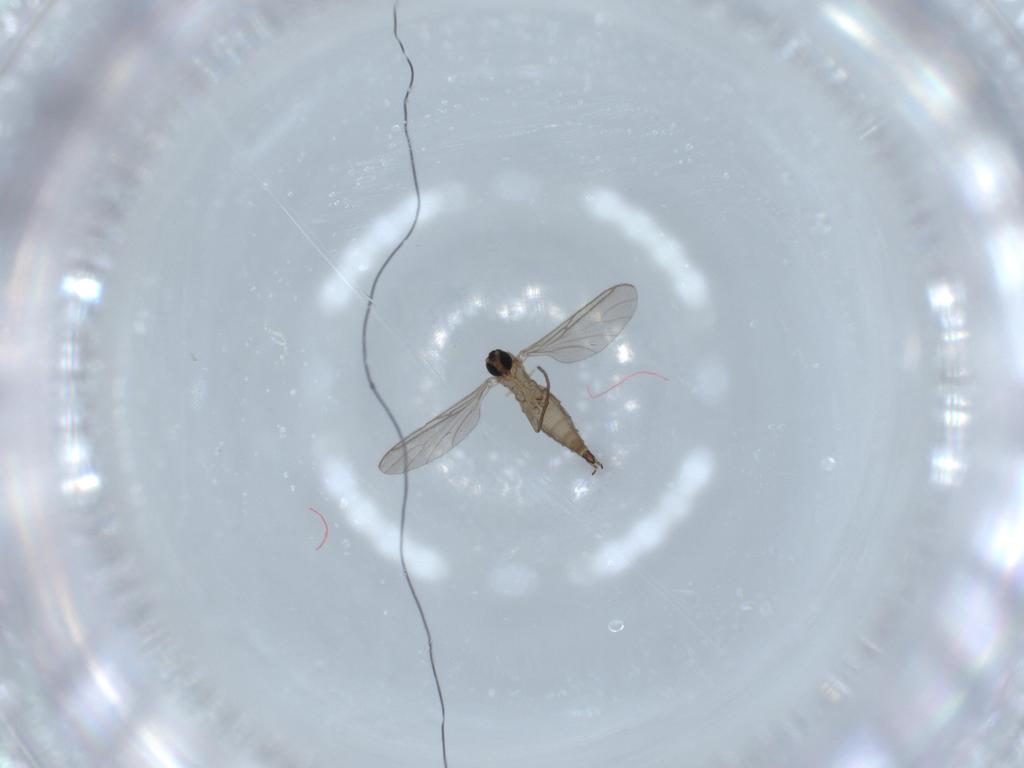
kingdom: Animalia
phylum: Arthropoda
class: Insecta
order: Diptera
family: Sciaridae
